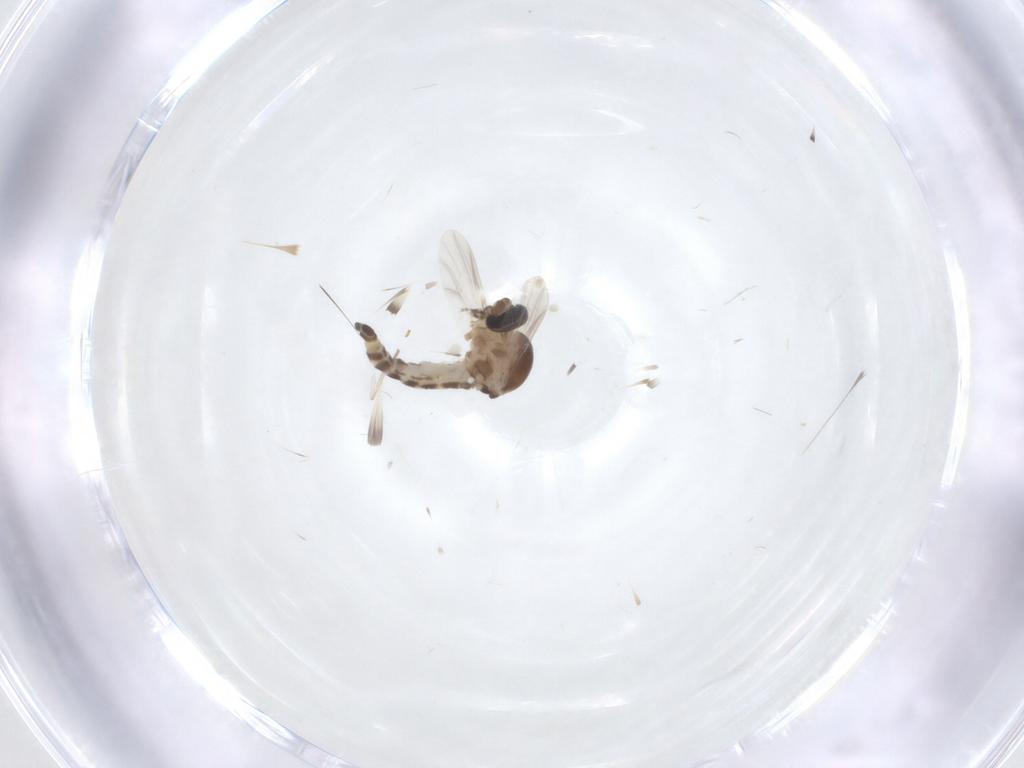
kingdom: Animalia
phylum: Arthropoda
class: Insecta
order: Diptera
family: Ceratopogonidae
